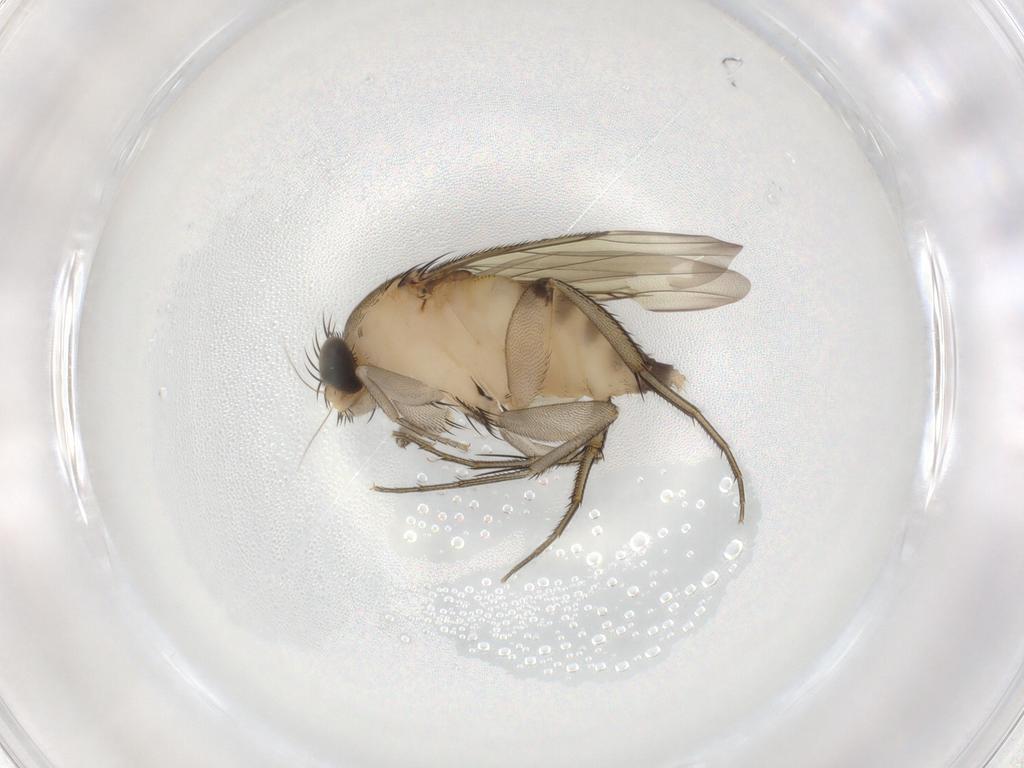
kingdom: Animalia
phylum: Arthropoda
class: Insecta
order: Diptera
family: Phoridae
